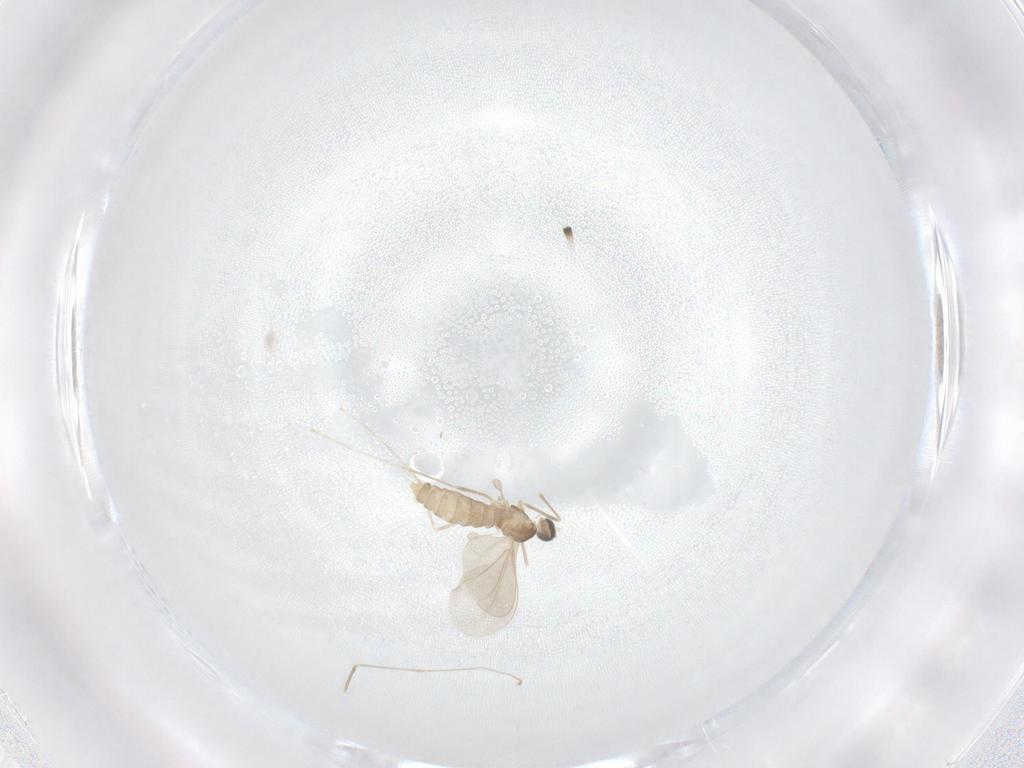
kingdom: Animalia
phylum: Arthropoda
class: Insecta
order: Diptera
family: Cecidomyiidae
